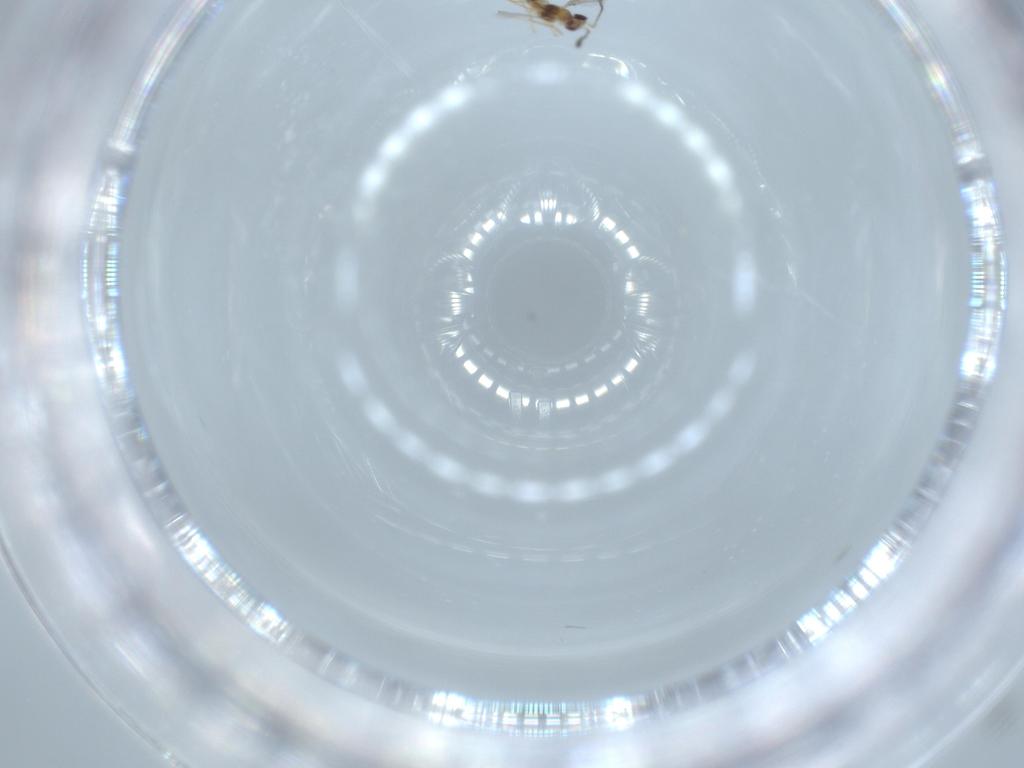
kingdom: Animalia
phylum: Arthropoda
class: Insecta
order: Hymenoptera
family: Mymaridae
